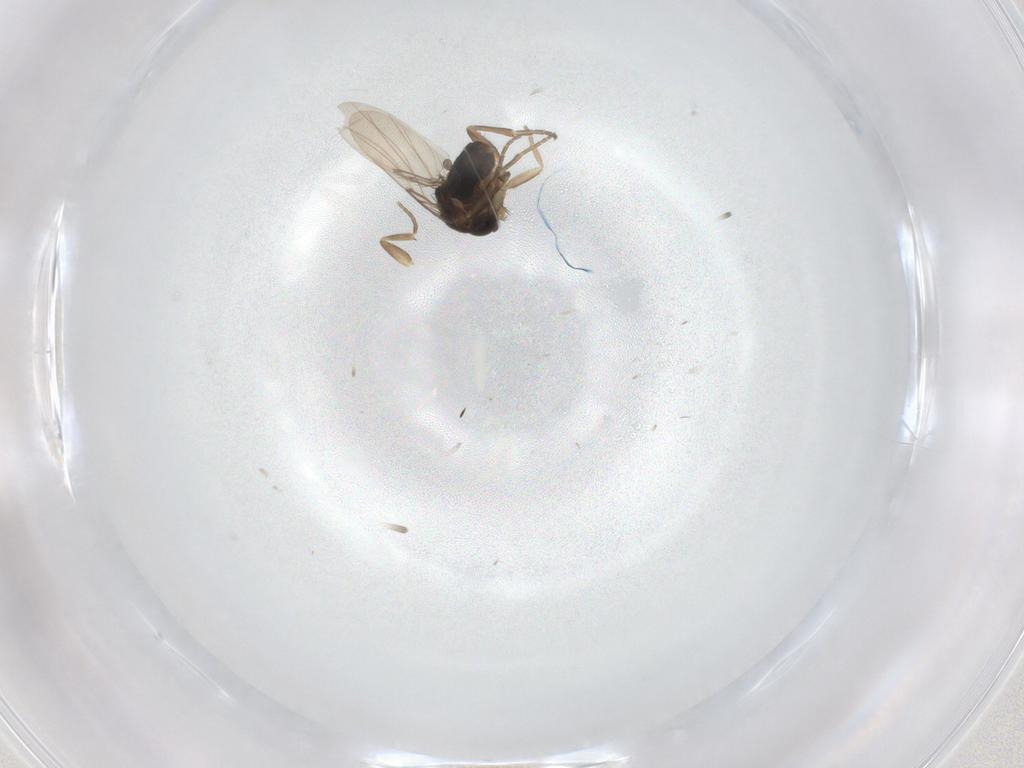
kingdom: Animalia
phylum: Arthropoda
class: Insecta
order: Diptera
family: Phoridae
